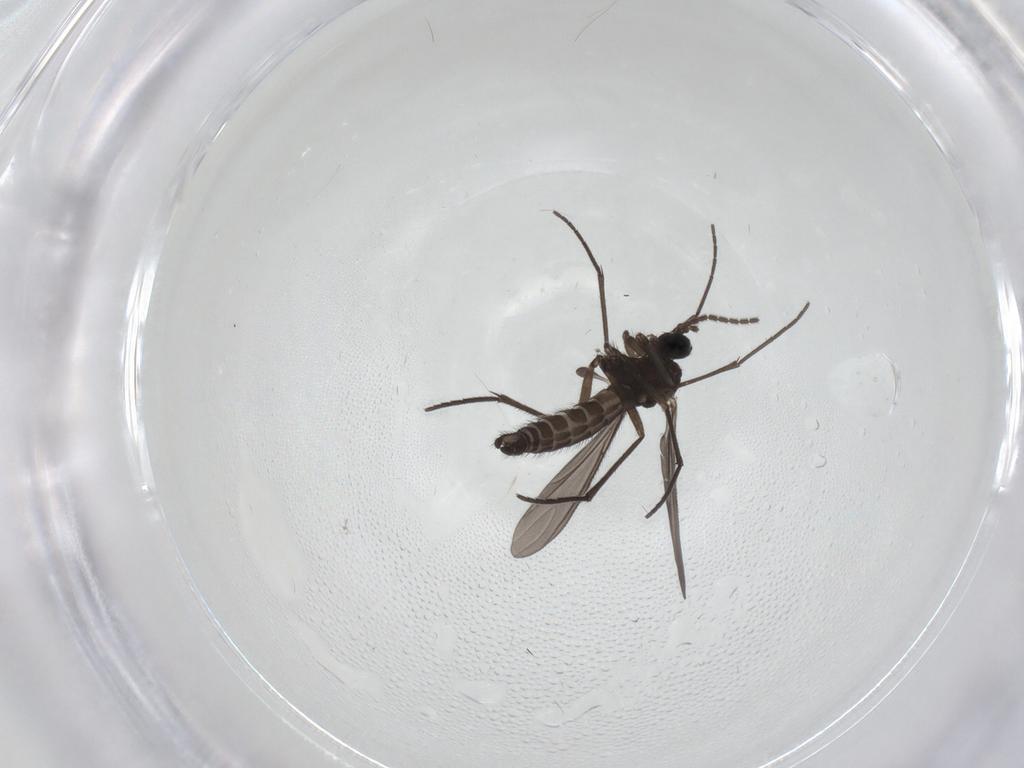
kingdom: Animalia
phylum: Arthropoda
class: Insecta
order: Diptera
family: Sciaridae
